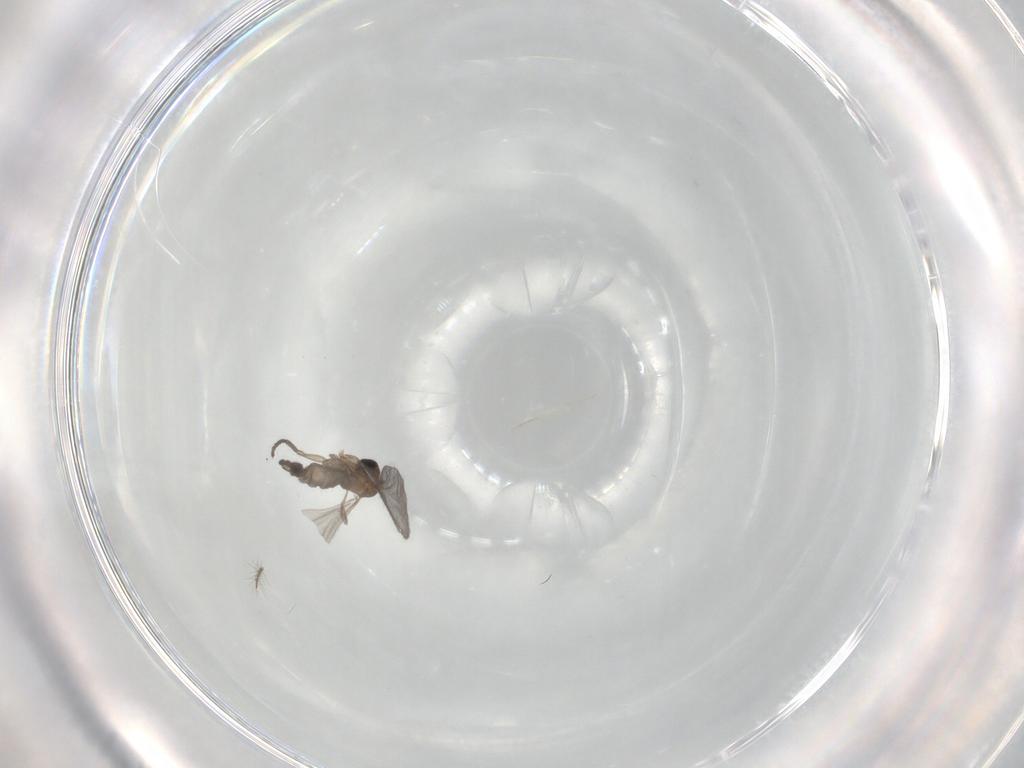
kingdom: Animalia
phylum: Arthropoda
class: Insecta
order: Diptera
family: Sciaridae
